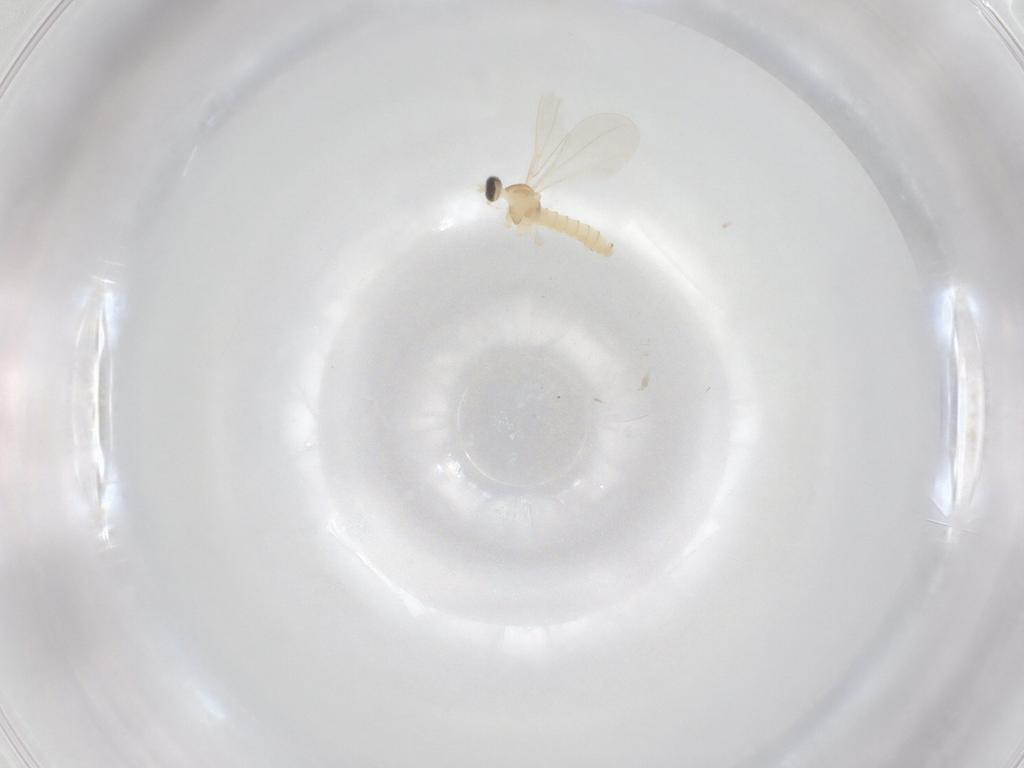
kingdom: Animalia
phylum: Arthropoda
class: Insecta
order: Diptera
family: Cecidomyiidae
